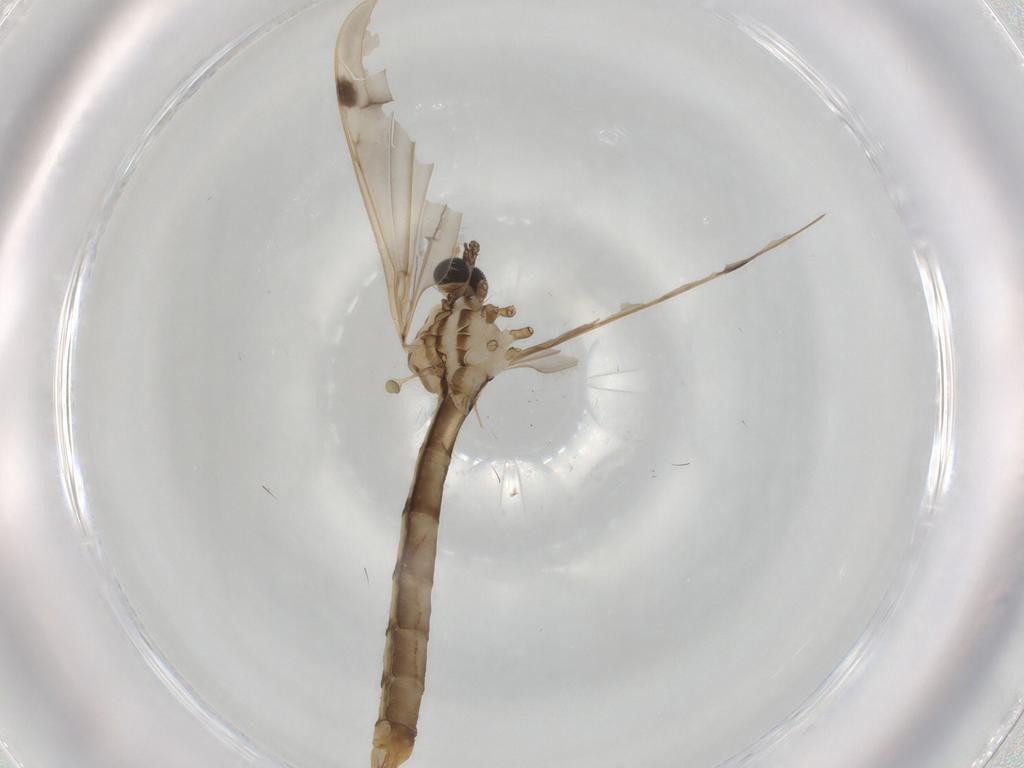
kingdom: Animalia
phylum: Arthropoda
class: Insecta
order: Diptera
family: Limoniidae
